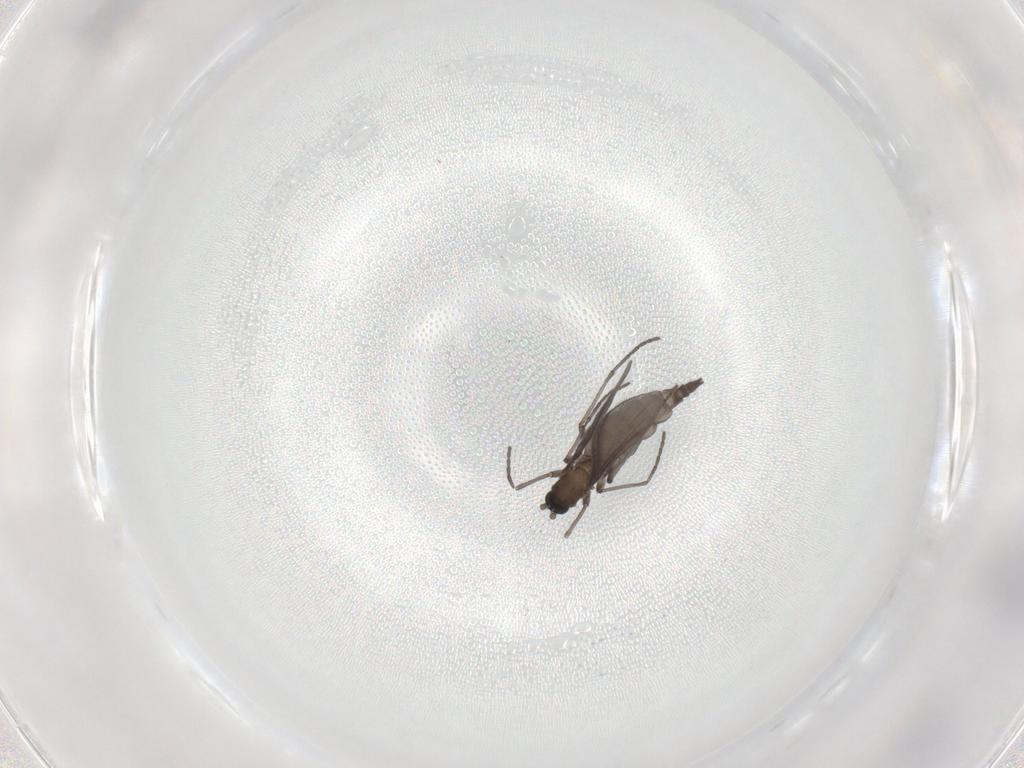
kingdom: Animalia
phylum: Arthropoda
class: Insecta
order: Diptera
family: Sciaridae
